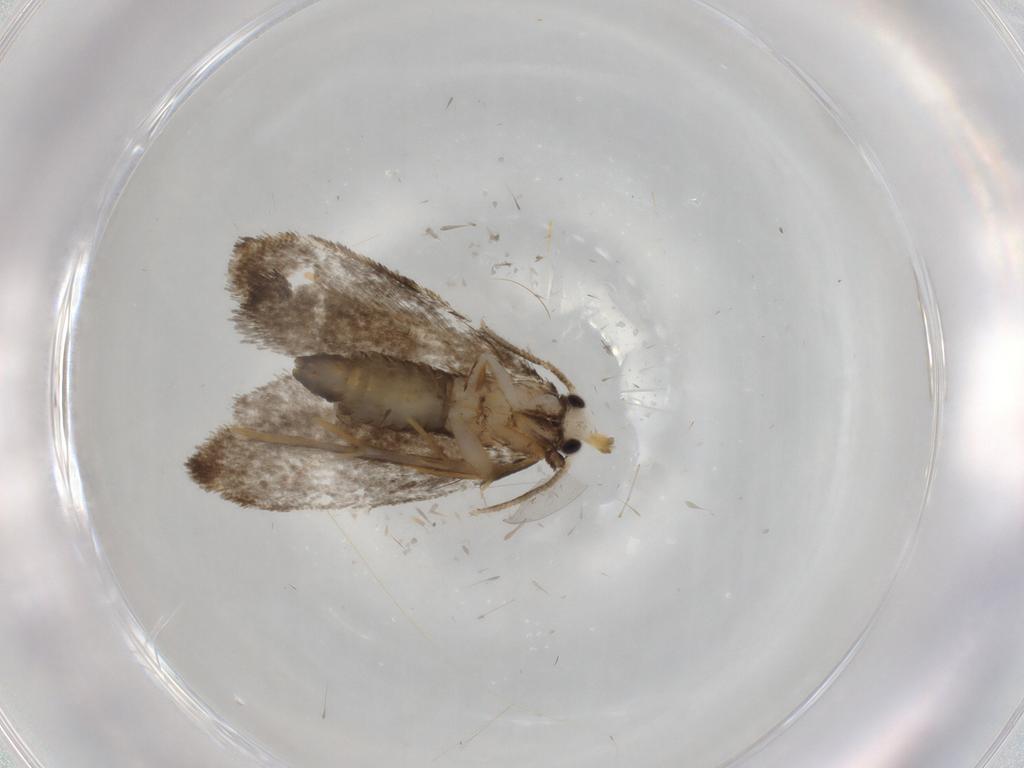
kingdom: Animalia
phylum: Arthropoda
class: Insecta
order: Lepidoptera
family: Psychidae
